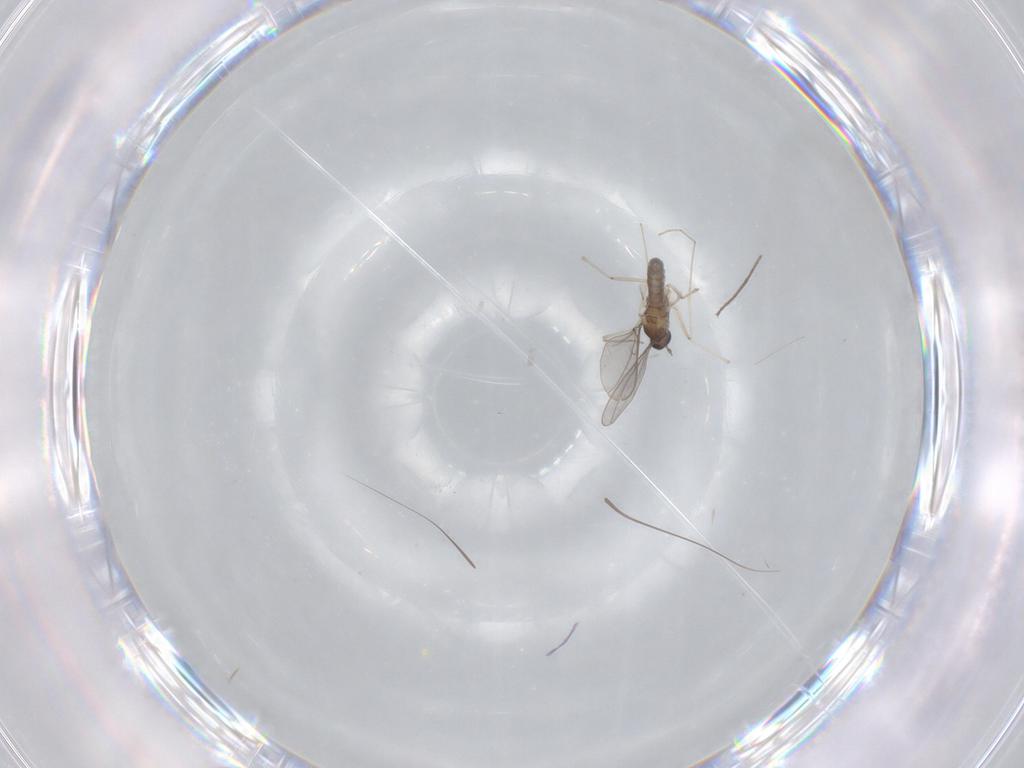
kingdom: Animalia
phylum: Arthropoda
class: Insecta
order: Diptera
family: Cecidomyiidae
